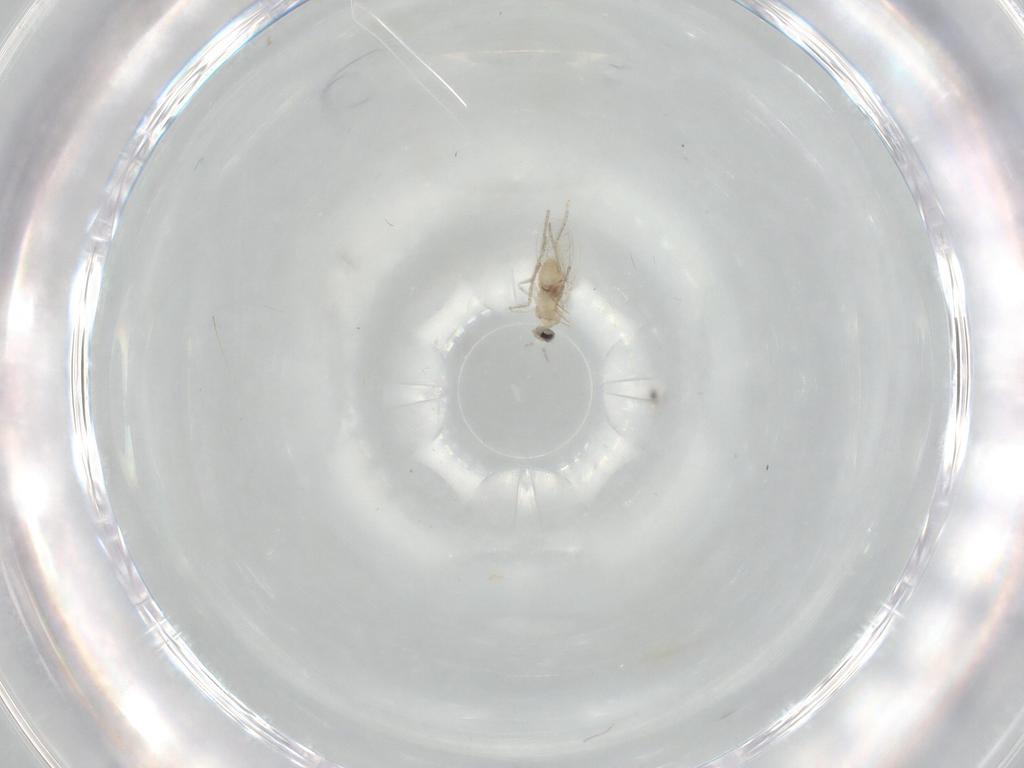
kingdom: Animalia
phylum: Arthropoda
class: Insecta
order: Diptera
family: Cecidomyiidae
